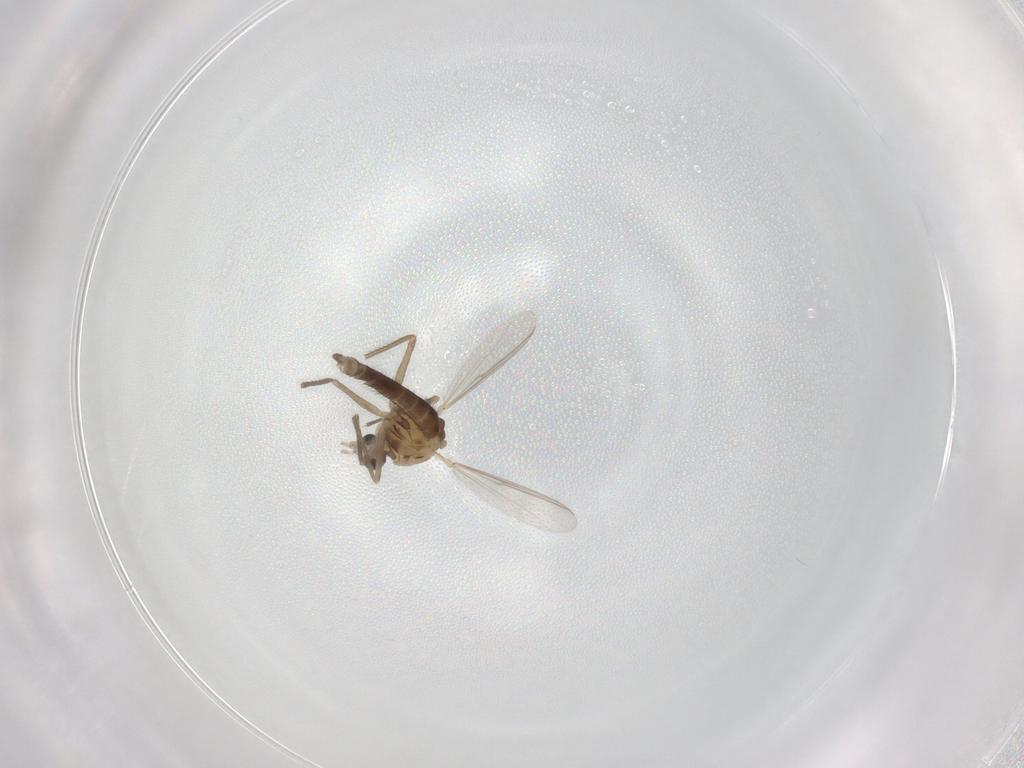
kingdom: Animalia
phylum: Arthropoda
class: Insecta
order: Diptera
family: Chironomidae
